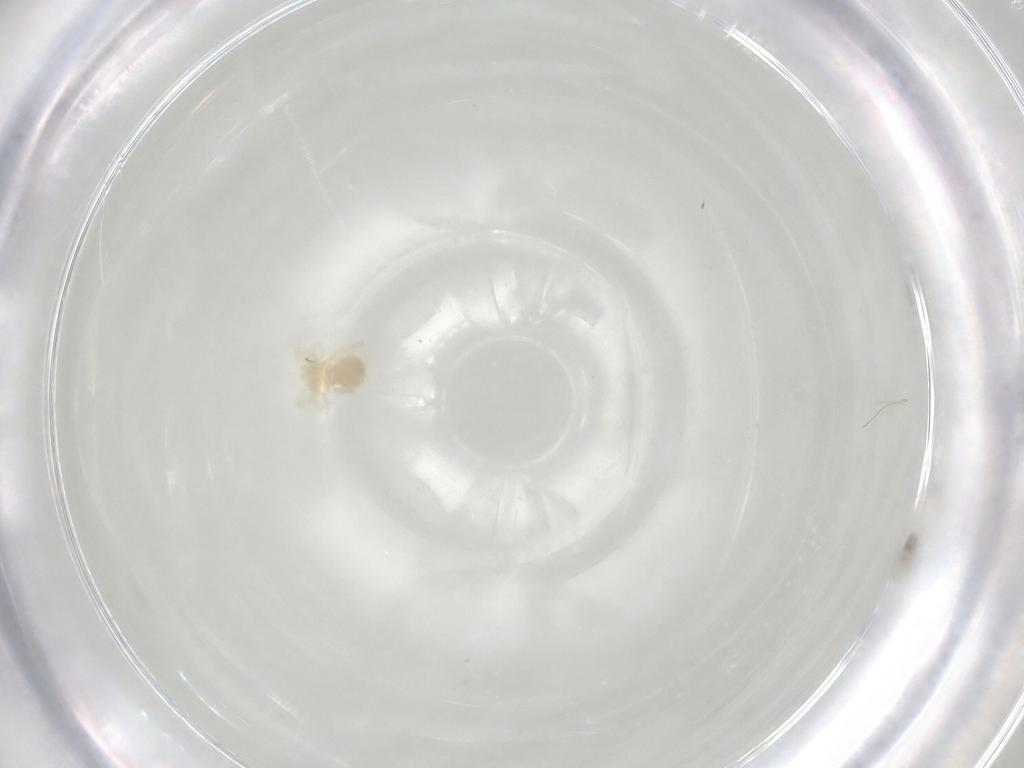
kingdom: Animalia
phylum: Arthropoda
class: Arachnida
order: Trombidiformes
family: Anystidae
